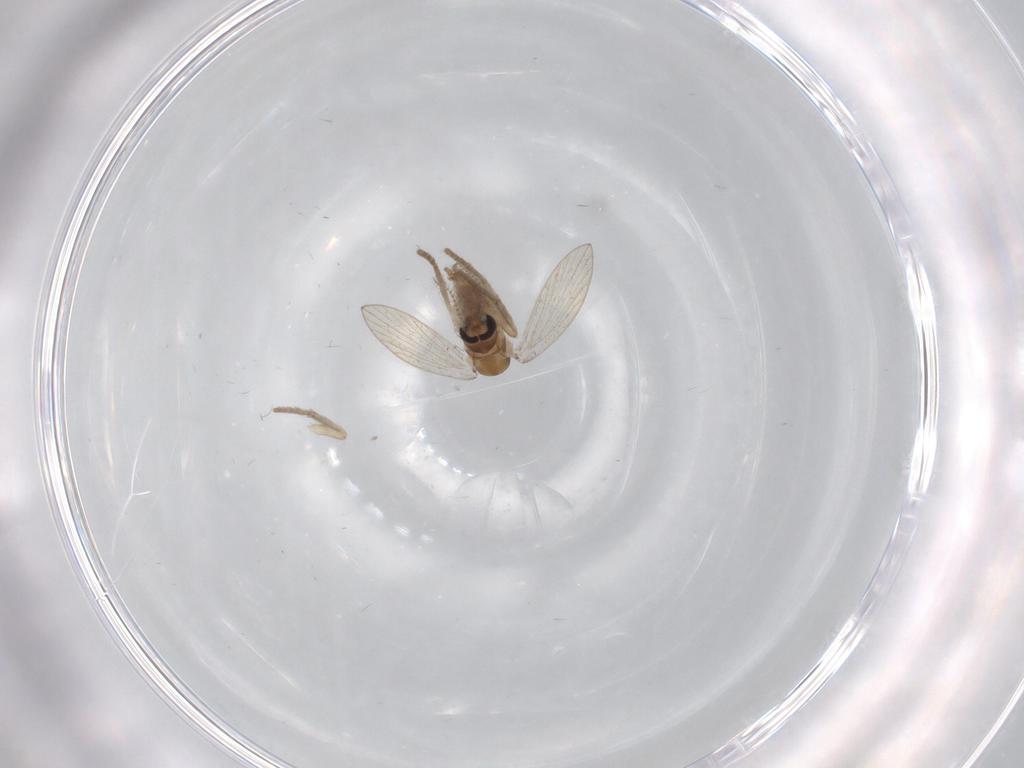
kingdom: Animalia
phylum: Arthropoda
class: Insecta
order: Diptera
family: Psychodidae
